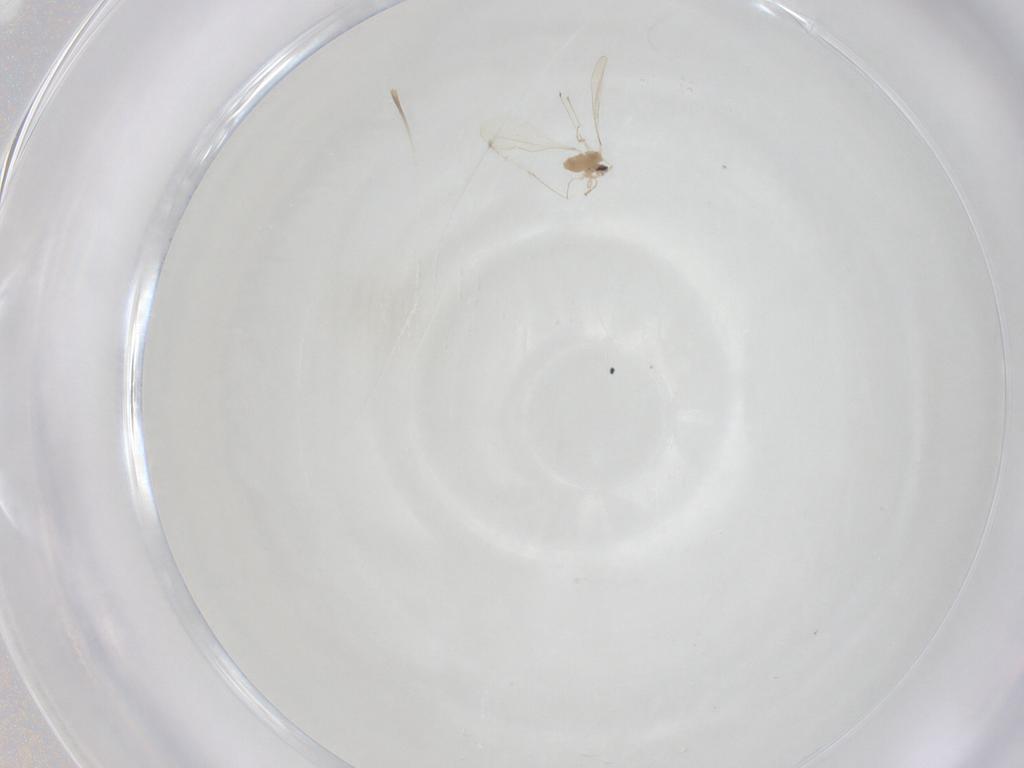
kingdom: Animalia
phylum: Arthropoda
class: Insecta
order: Diptera
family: Cecidomyiidae
